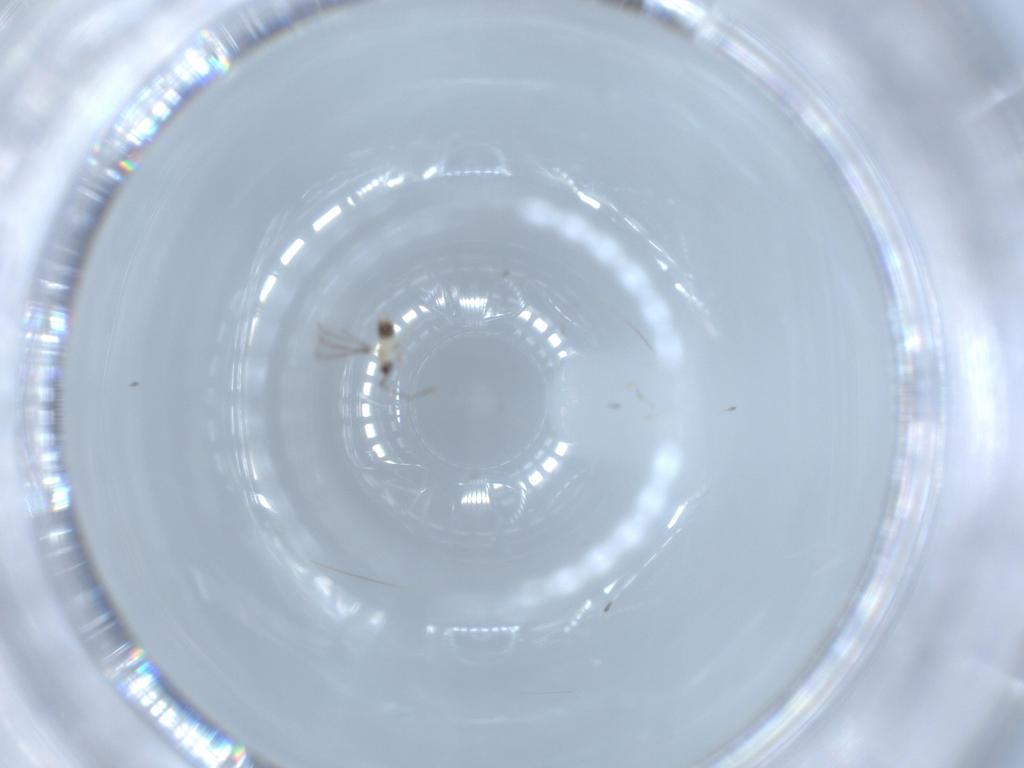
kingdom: Animalia
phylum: Arthropoda
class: Insecta
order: Hymenoptera
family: Mymaridae
